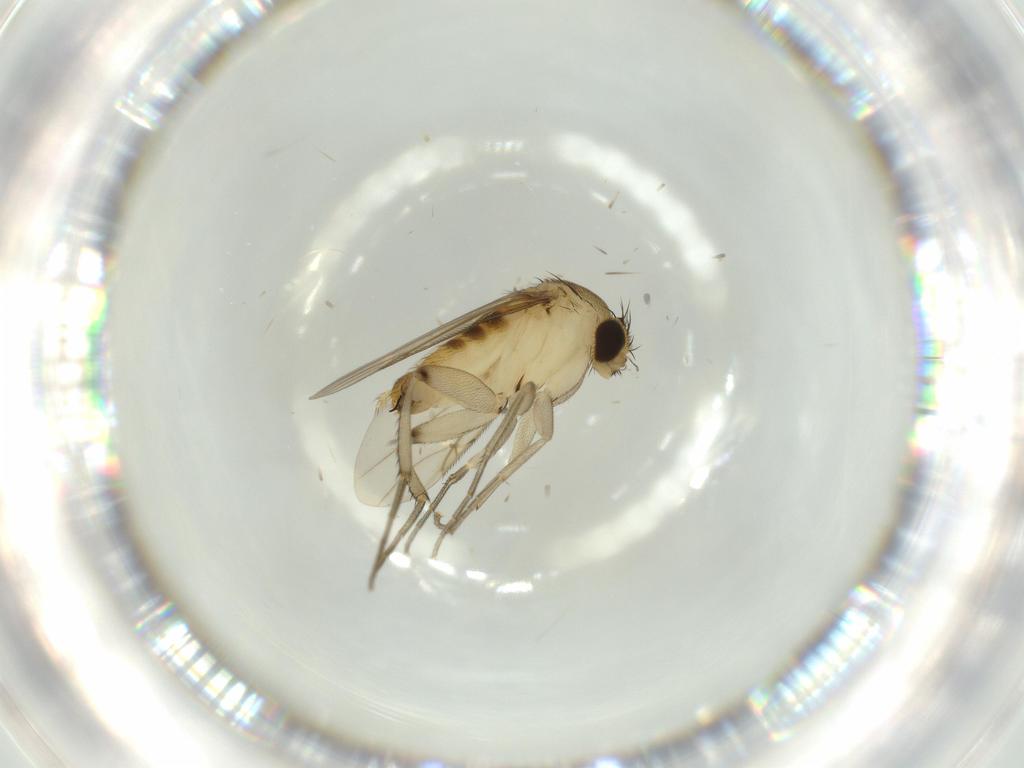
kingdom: Animalia
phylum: Arthropoda
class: Insecta
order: Diptera
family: Phoridae
